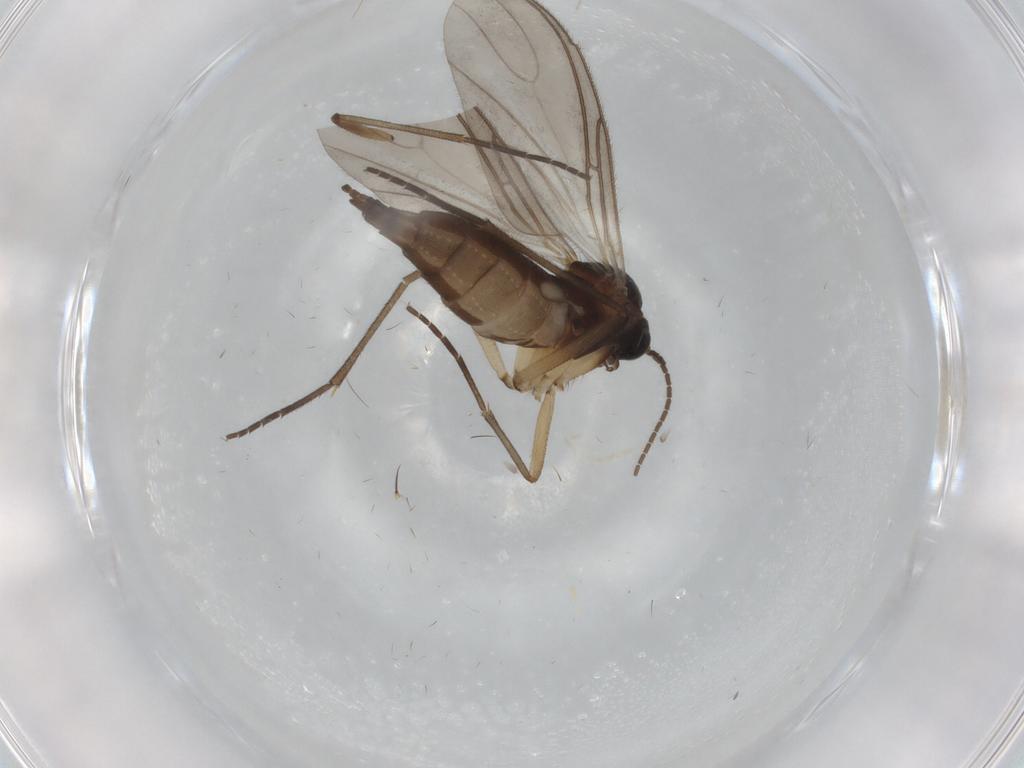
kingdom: Animalia
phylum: Arthropoda
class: Insecta
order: Diptera
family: Sciaridae
